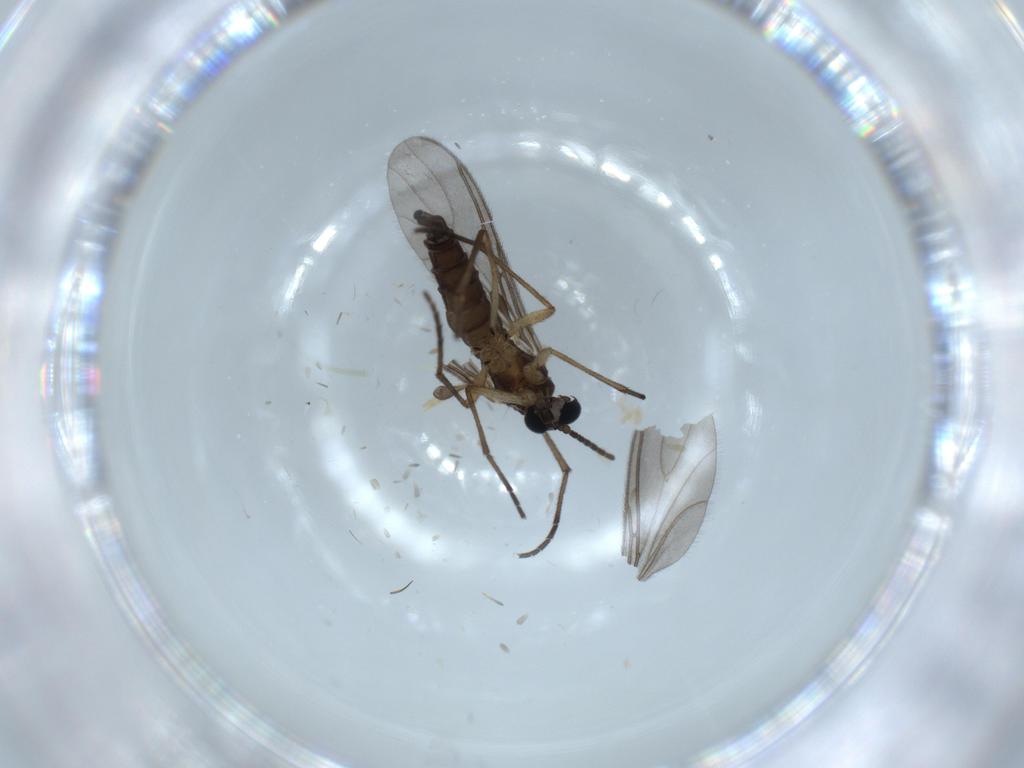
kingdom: Animalia
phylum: Arthropoda
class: Insecta
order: Diptera
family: Sciaridae
